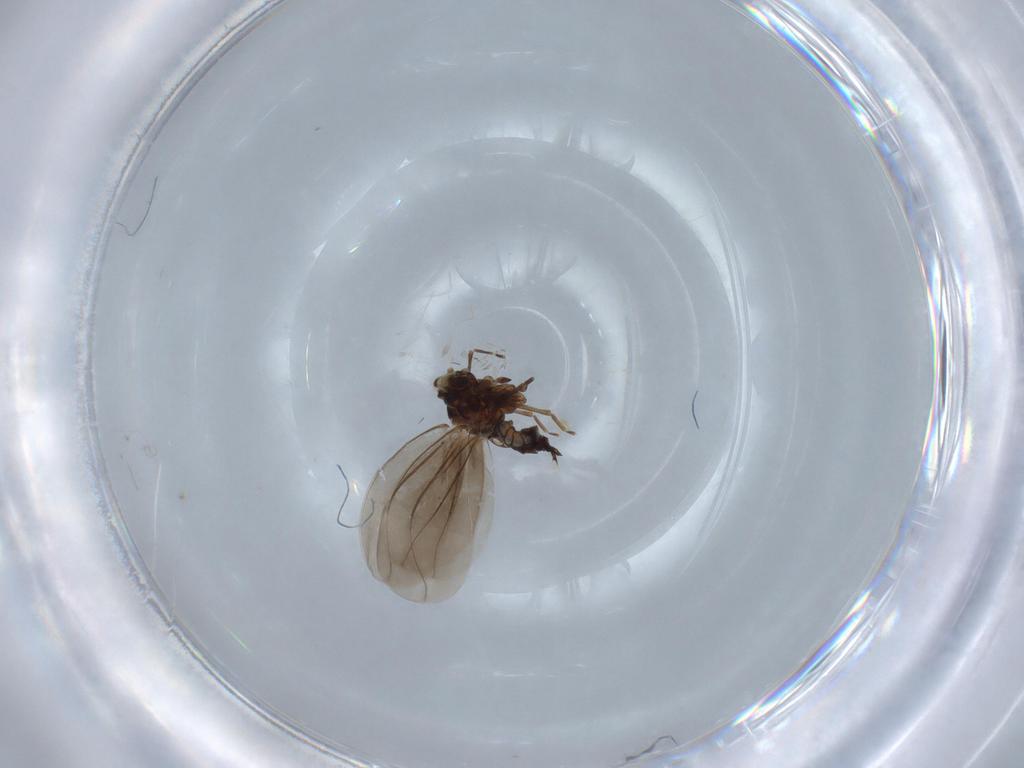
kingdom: Animalia
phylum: Arthropoda
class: Insecta
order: Hemiptera
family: Aleyrodidae
